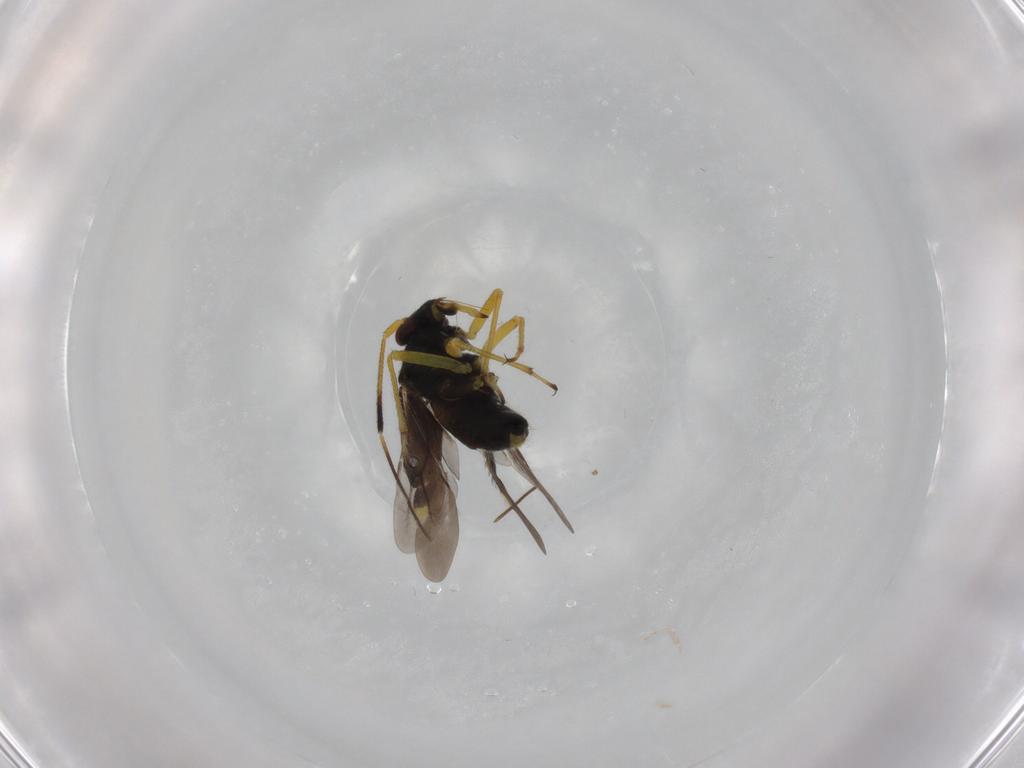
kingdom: Animalia
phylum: Arthropoda
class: Insecta
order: Hemiptera
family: Miridae
